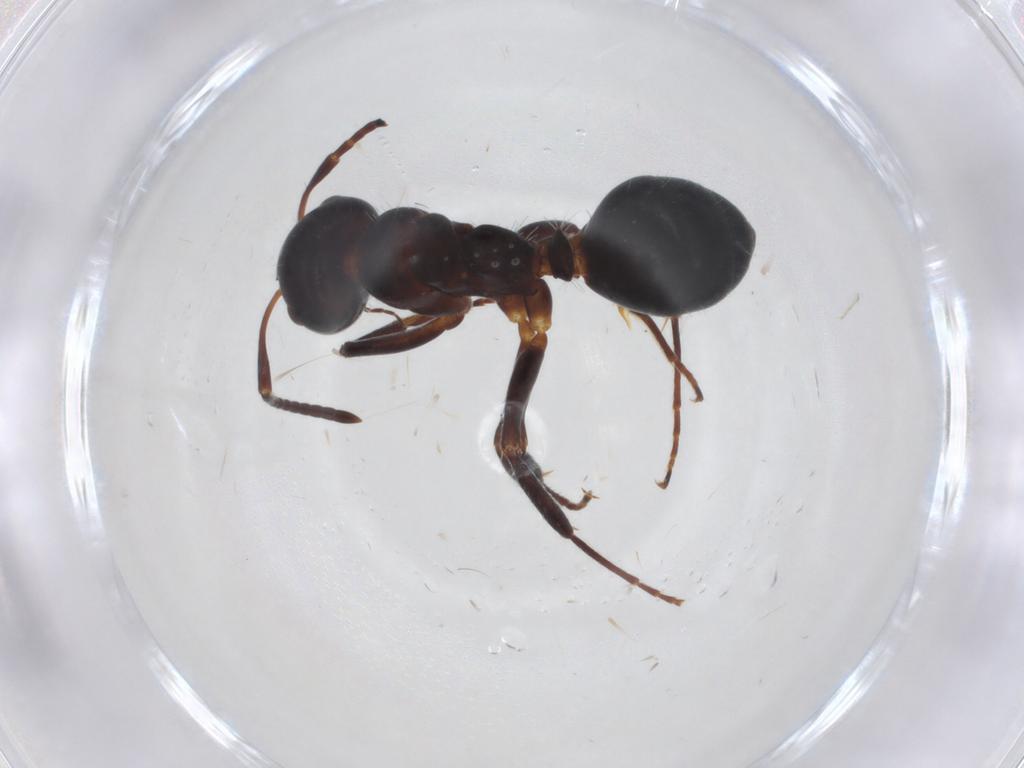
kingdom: Animalia
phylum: Arthropoda
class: Insecta
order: Hymenoptera
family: Formicidae
